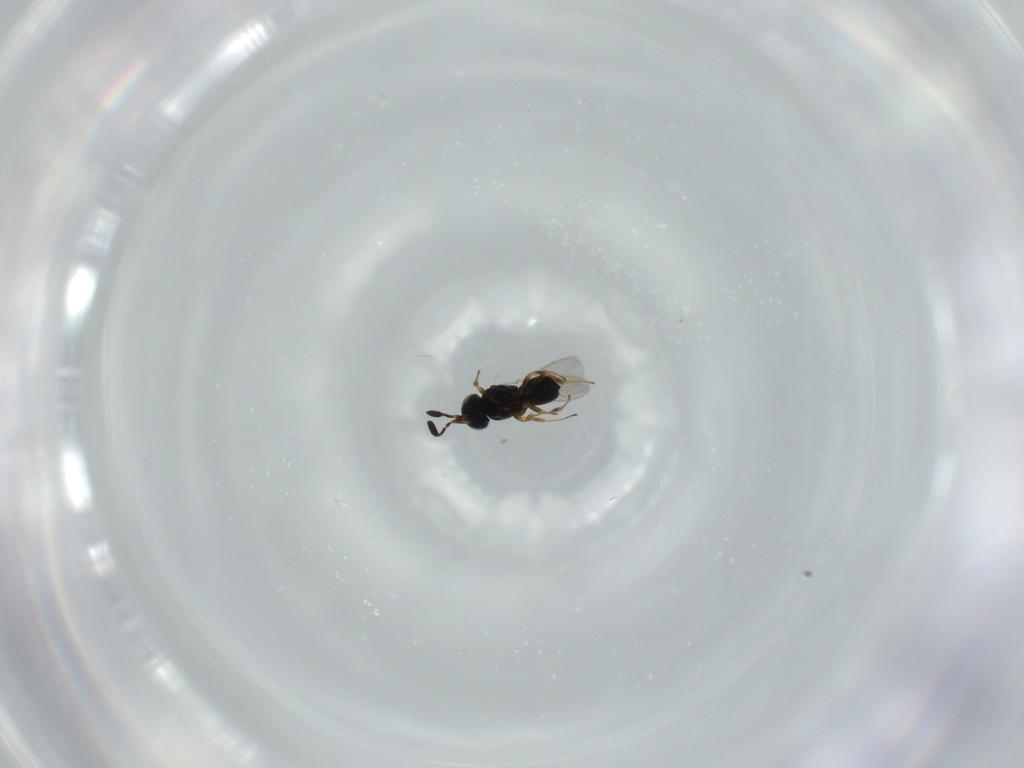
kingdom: Animalia
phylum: Arthropoda
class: Insecta
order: Hymenoptera
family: Scelionidae
